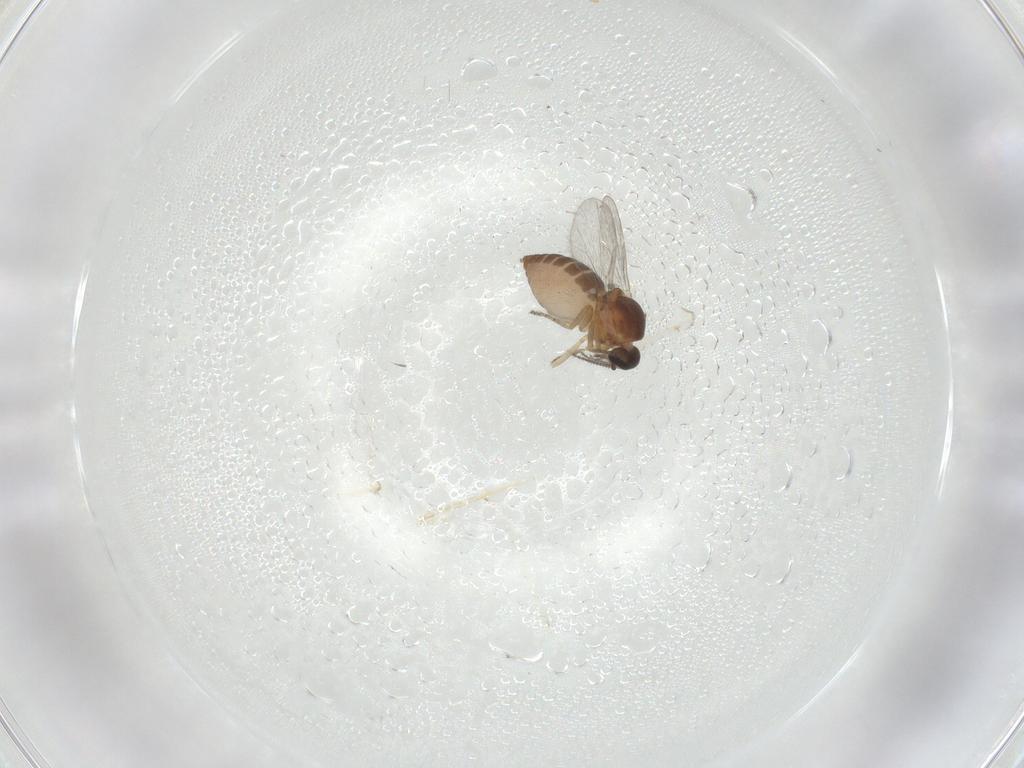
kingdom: Animalia
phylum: Arthropoda
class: Insecta
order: Diptera
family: Ceratopogonidae
